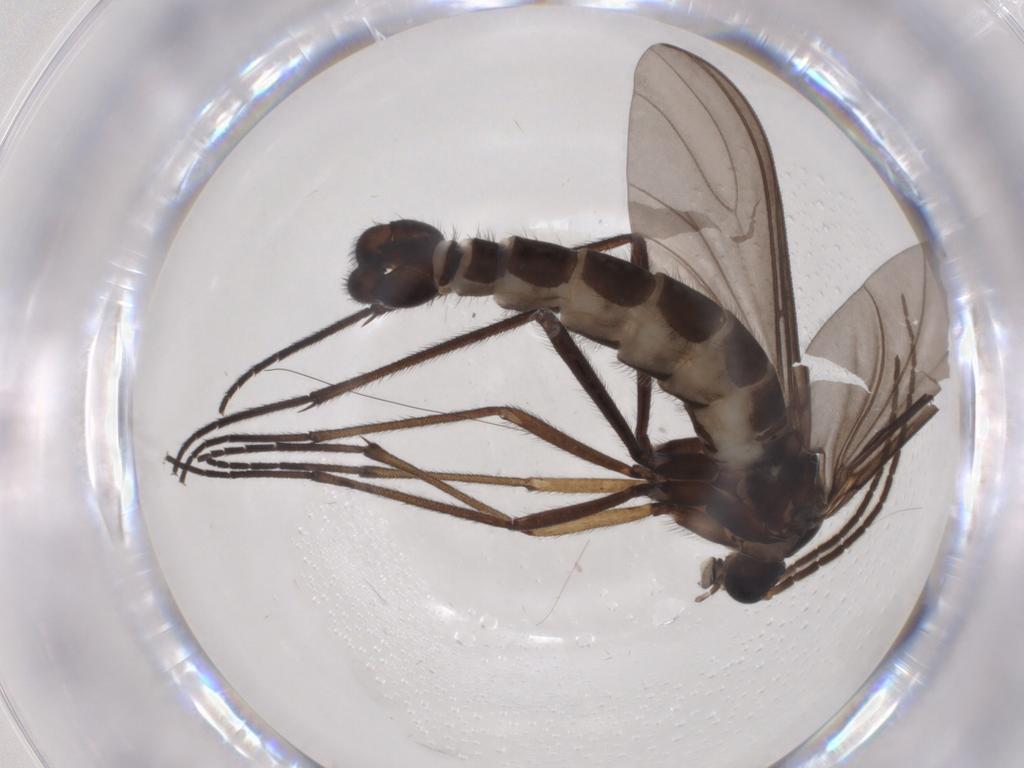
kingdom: Animalia
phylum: Arthropoda
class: Insecta
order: Diptera
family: Sciaridae
